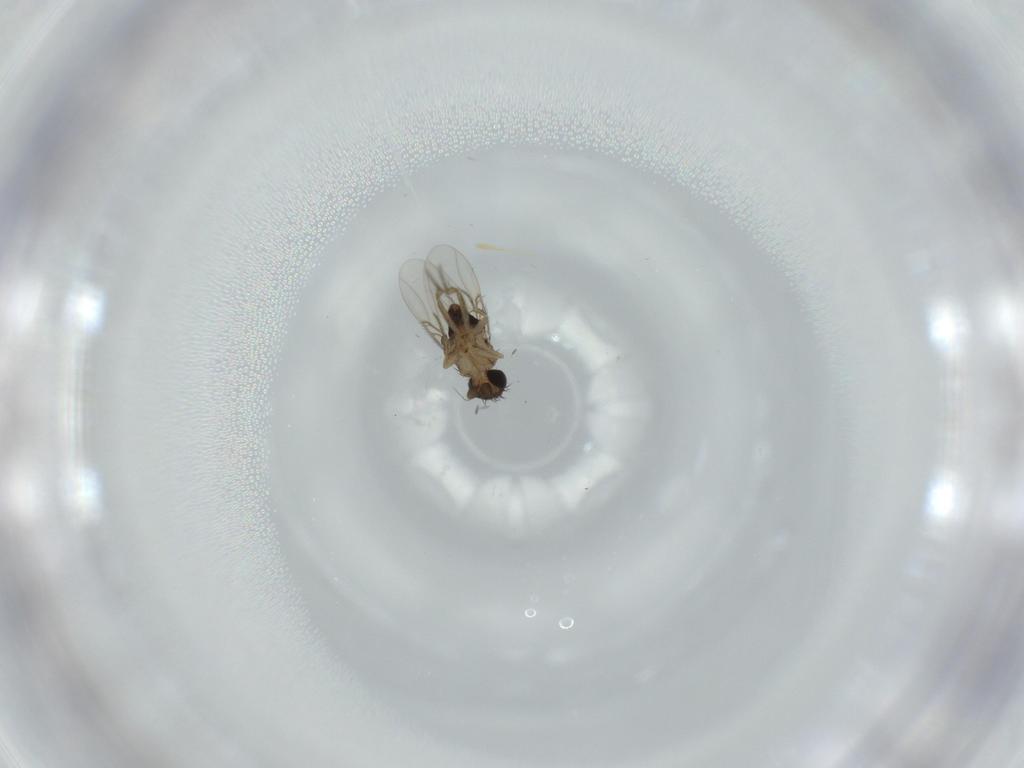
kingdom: Animalia
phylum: Arthropoda
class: Insecta
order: Diptera
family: Phoridae
